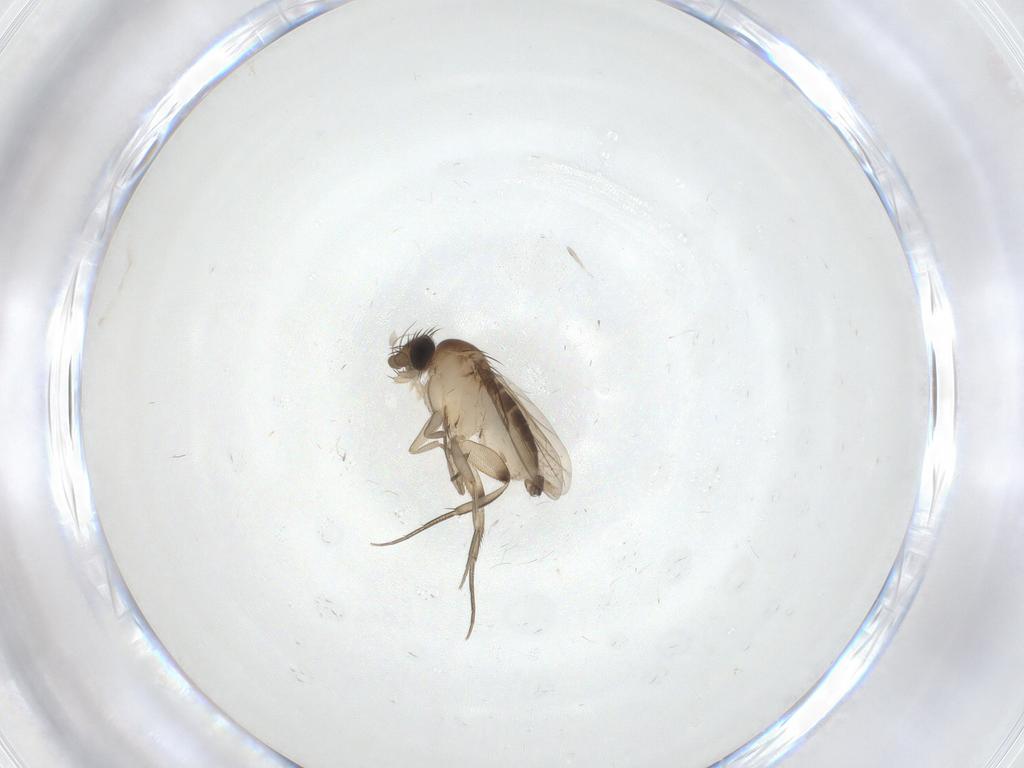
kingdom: Animalia
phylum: Arthropoda
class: Insecta
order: Diptera
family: Phoridae
